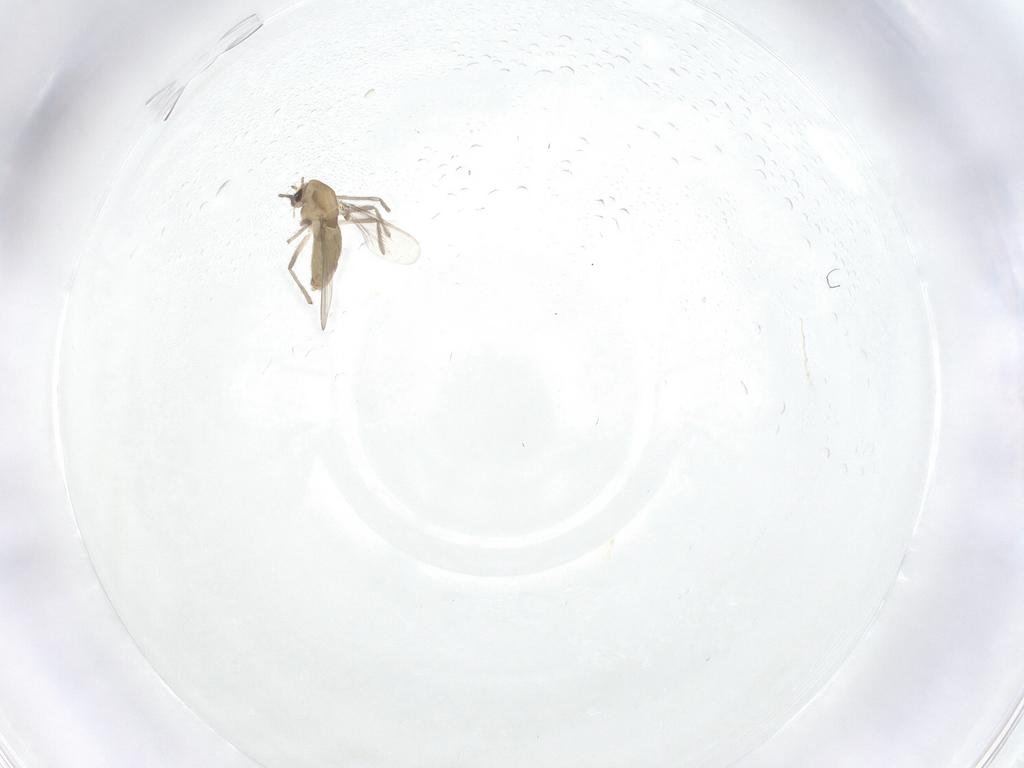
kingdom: Animalia
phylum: Arthropoda
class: Insecta
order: Diptera
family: Chironomidae
